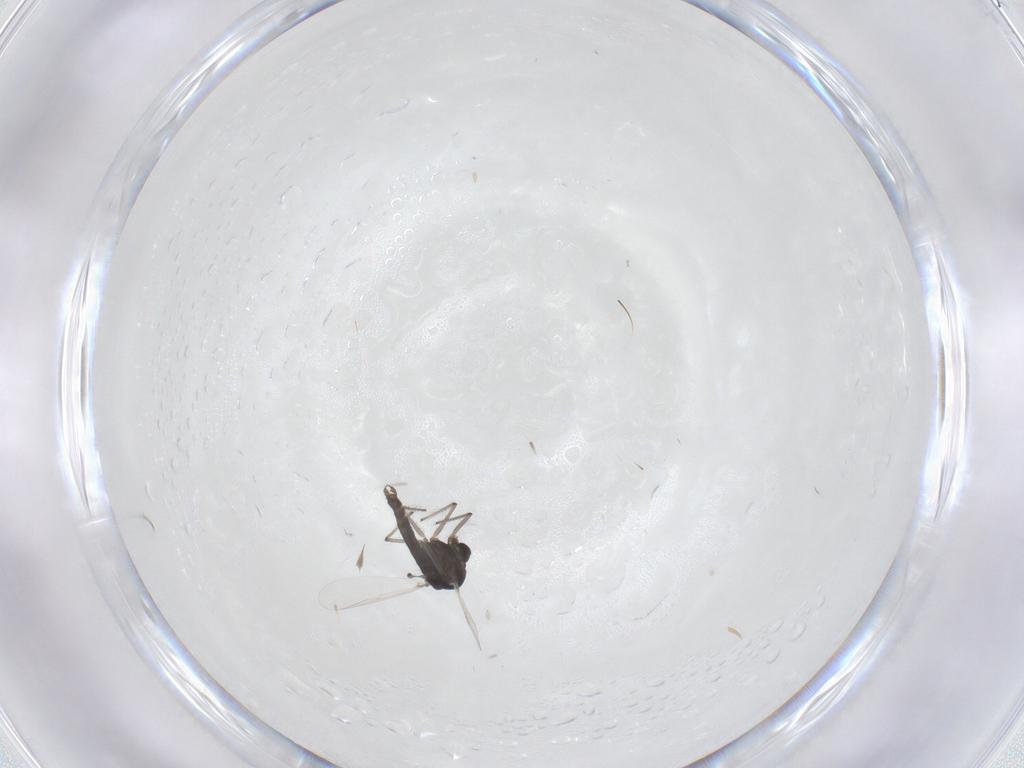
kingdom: Animalia
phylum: Arthropoda
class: Insecta
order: Diptera
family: Chironomidae
